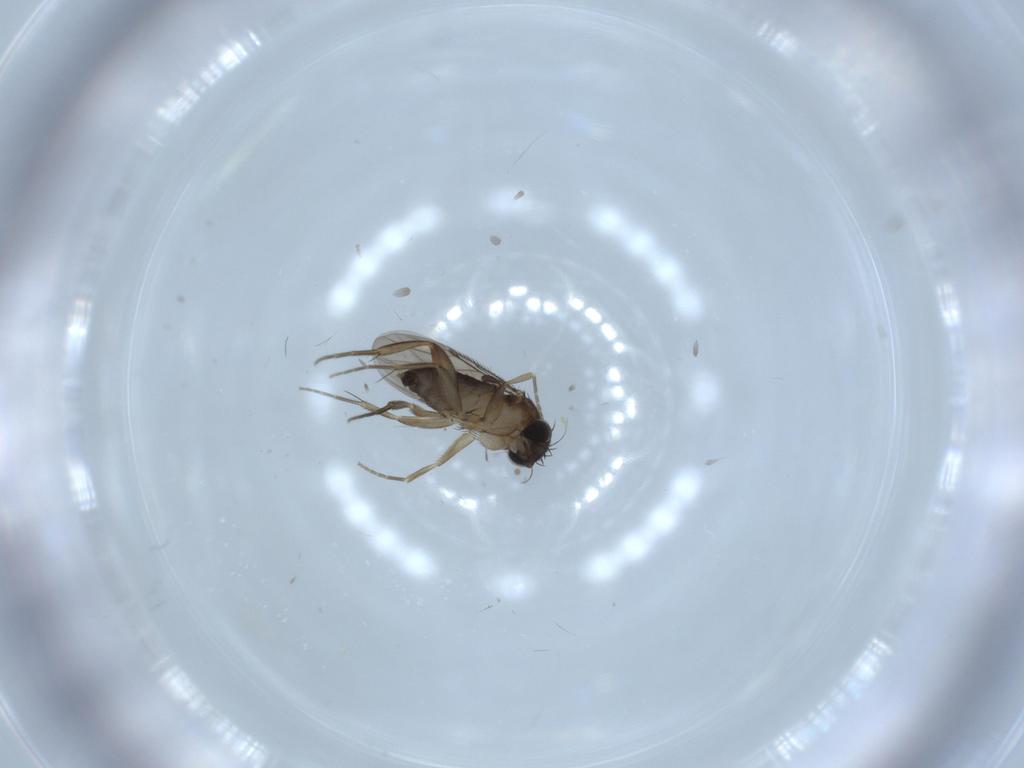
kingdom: Animalia
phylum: Arthropoda
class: Insecta
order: Diptera
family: Phoridae
